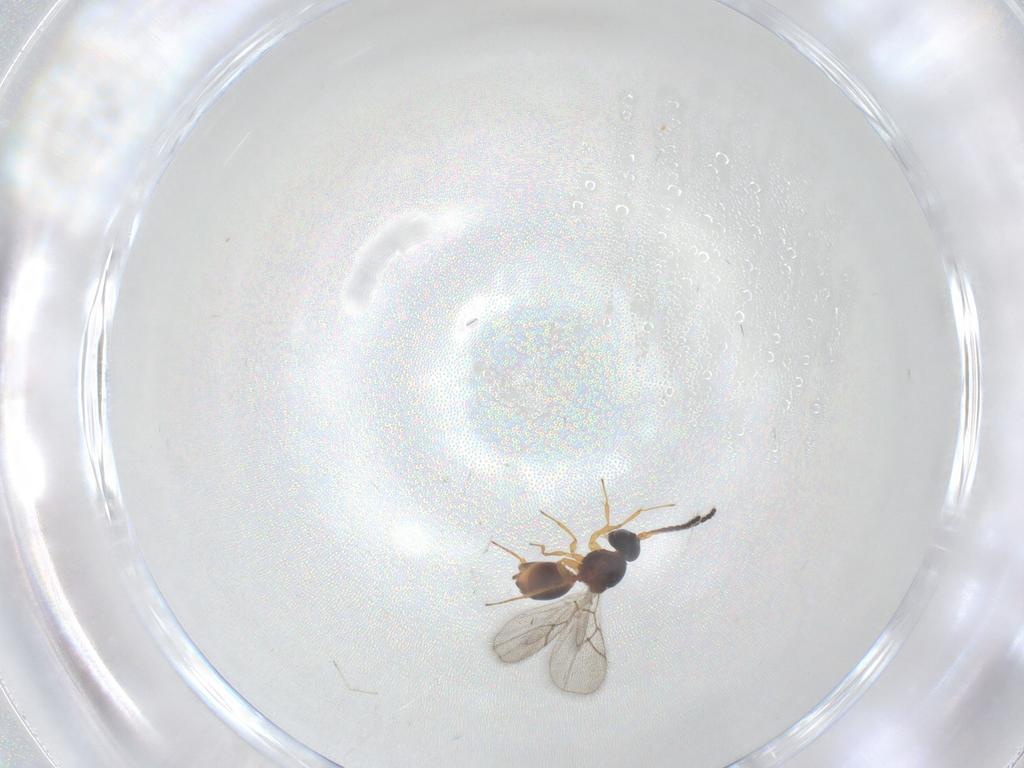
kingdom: Animalia
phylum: Arthropoda
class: Insecta
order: Hymenoptera
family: Figitidae
